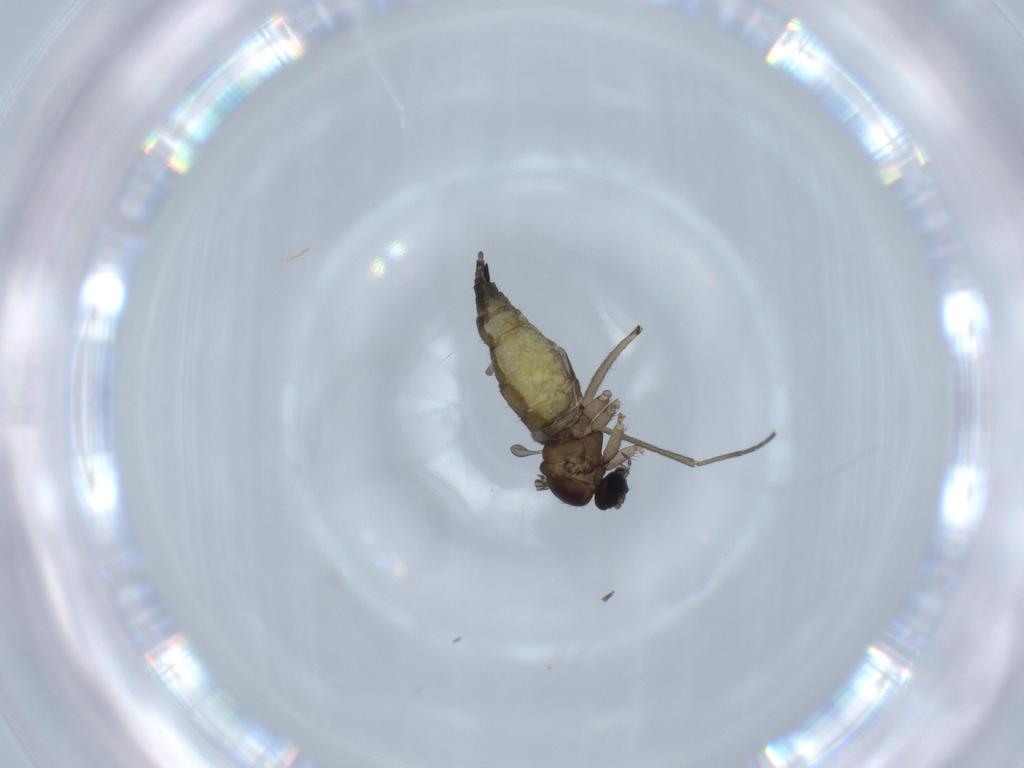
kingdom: Animalia
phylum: Arthropoda
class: Insecta
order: Diptera
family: Sciaridae
